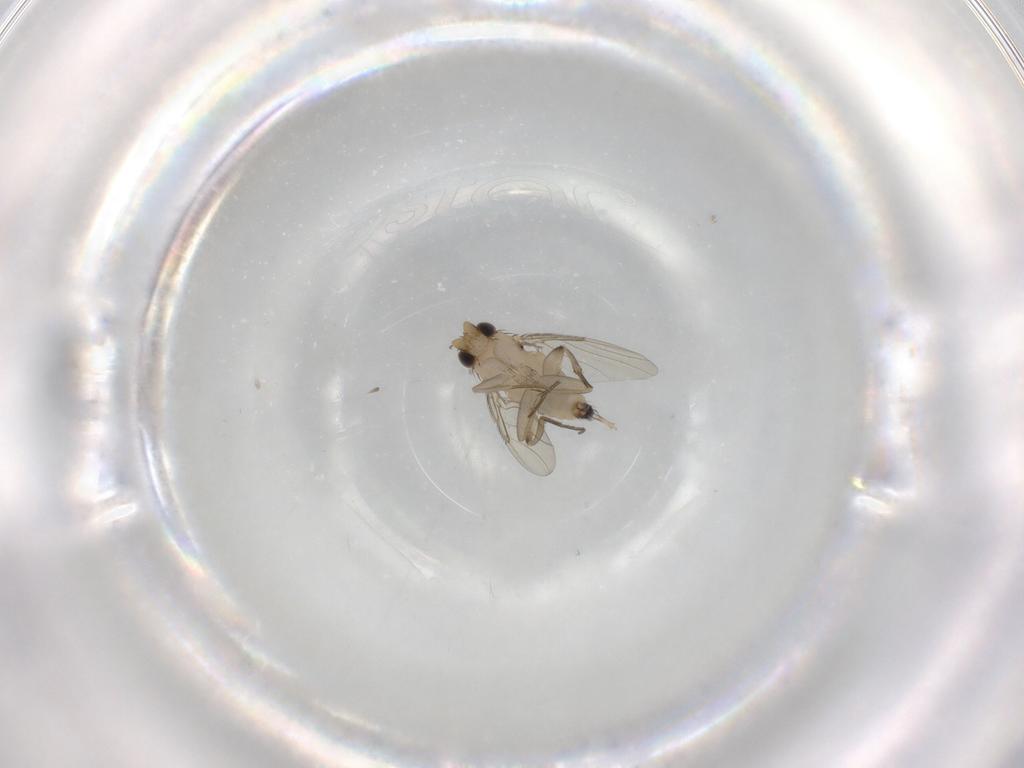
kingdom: Animalia
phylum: Arthropoda
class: Insecta
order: Diptera
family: Phoridae
